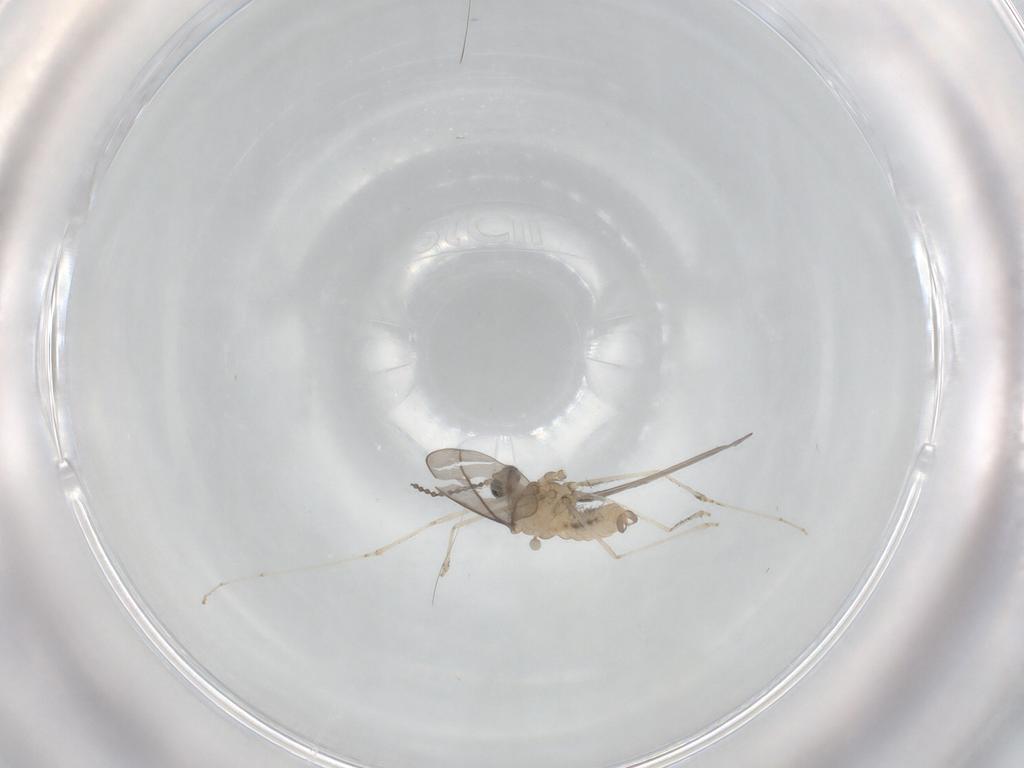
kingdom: Animalia
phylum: Arthropoda
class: Insecta
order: Diptera
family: Cecidomyiidae
